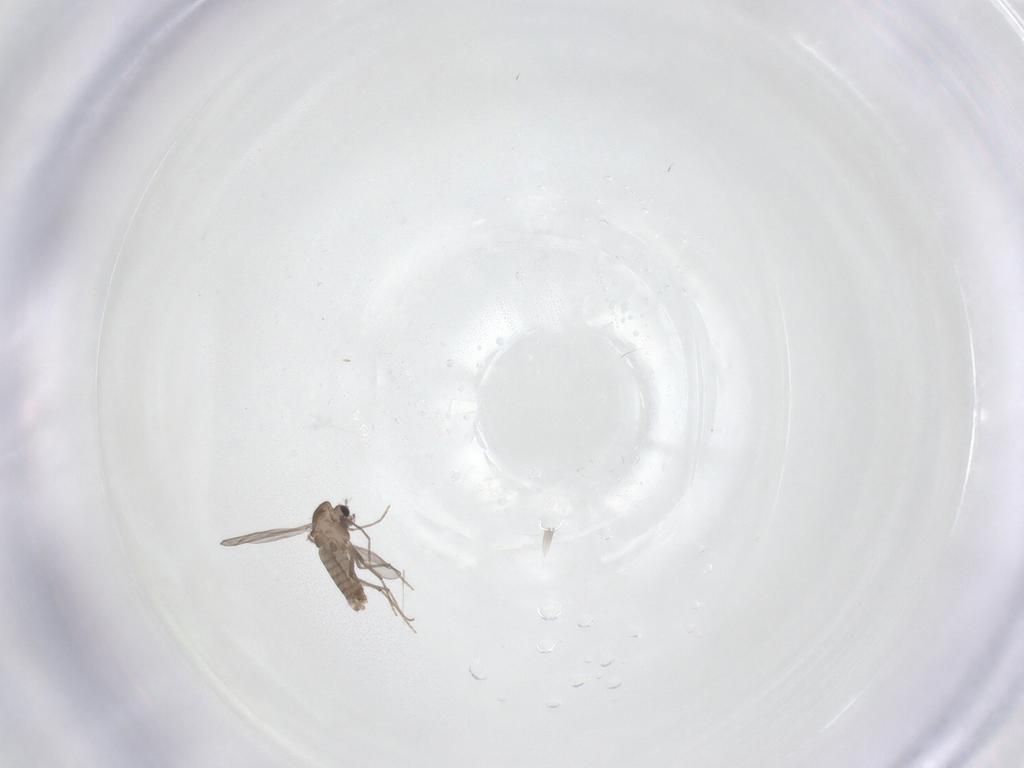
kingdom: Animalia
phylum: Arthropoda
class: Insecta
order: Diptera
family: Chironomidae
